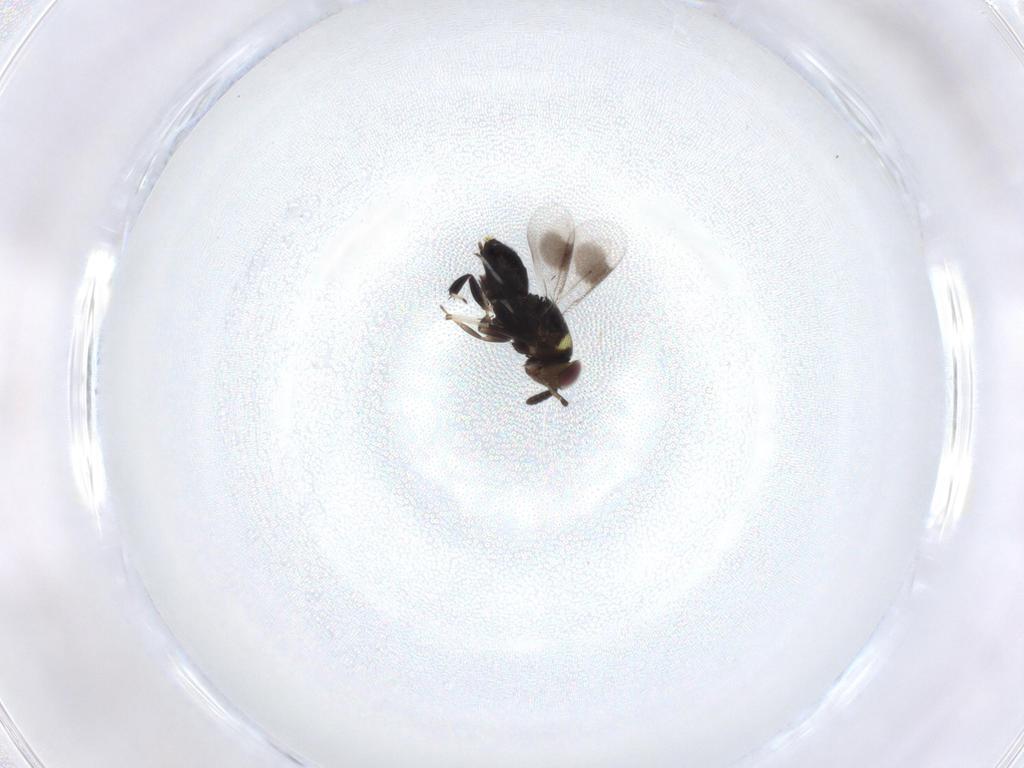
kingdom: Animalia
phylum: Arthropoda
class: Insecta
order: Hymenoptera
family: Aphelinidae
